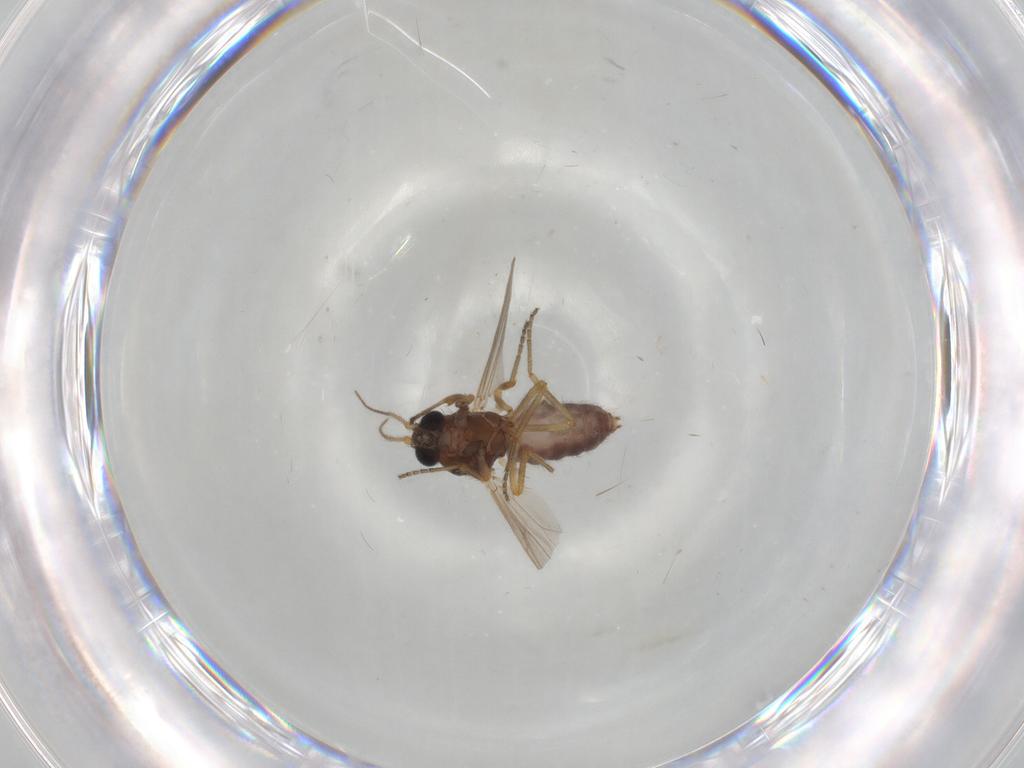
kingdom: Animalia
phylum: Arthropoda
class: Insecta
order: Diptera
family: Ceratopogonidae
